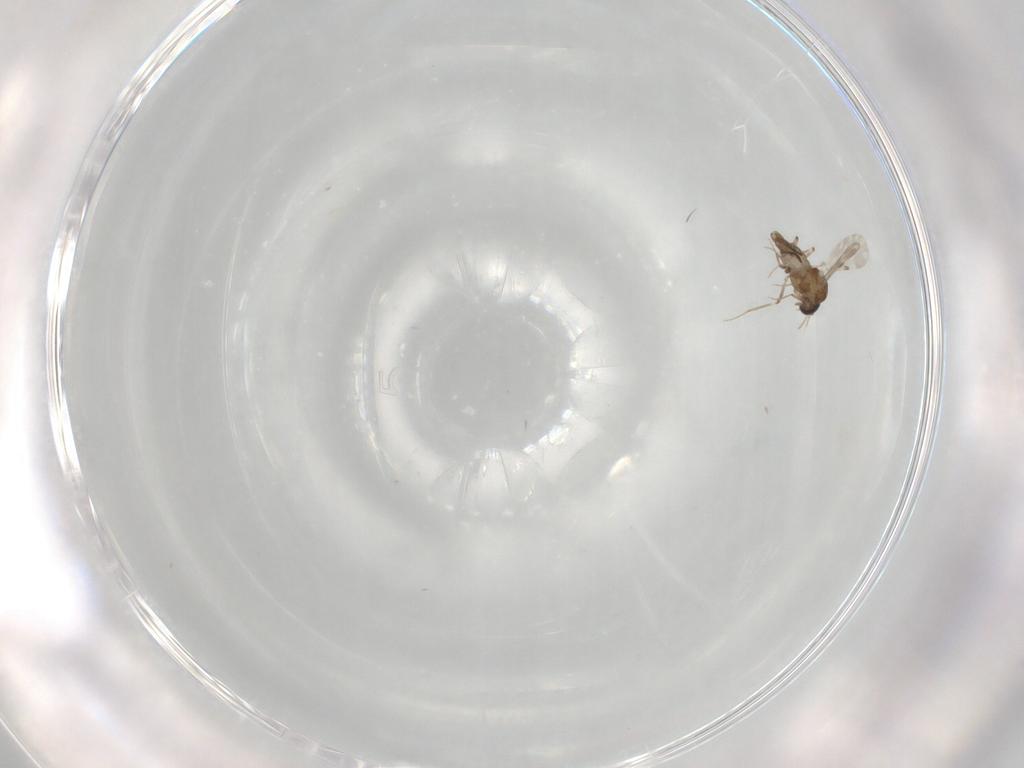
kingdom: Animalia
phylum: Arthropoda
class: Insecta
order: Diptera
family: Ceratopogonidae
